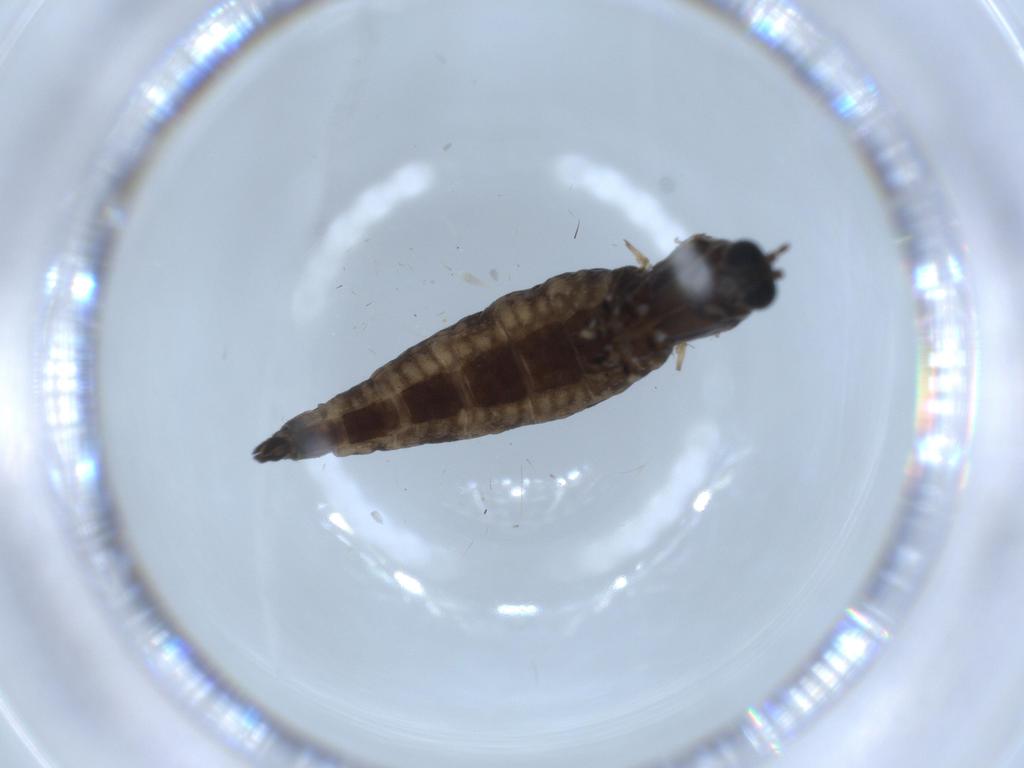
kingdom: Animalia
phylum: Arthropoda
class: Insecta
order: Diptera
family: Cecidomyiidae
